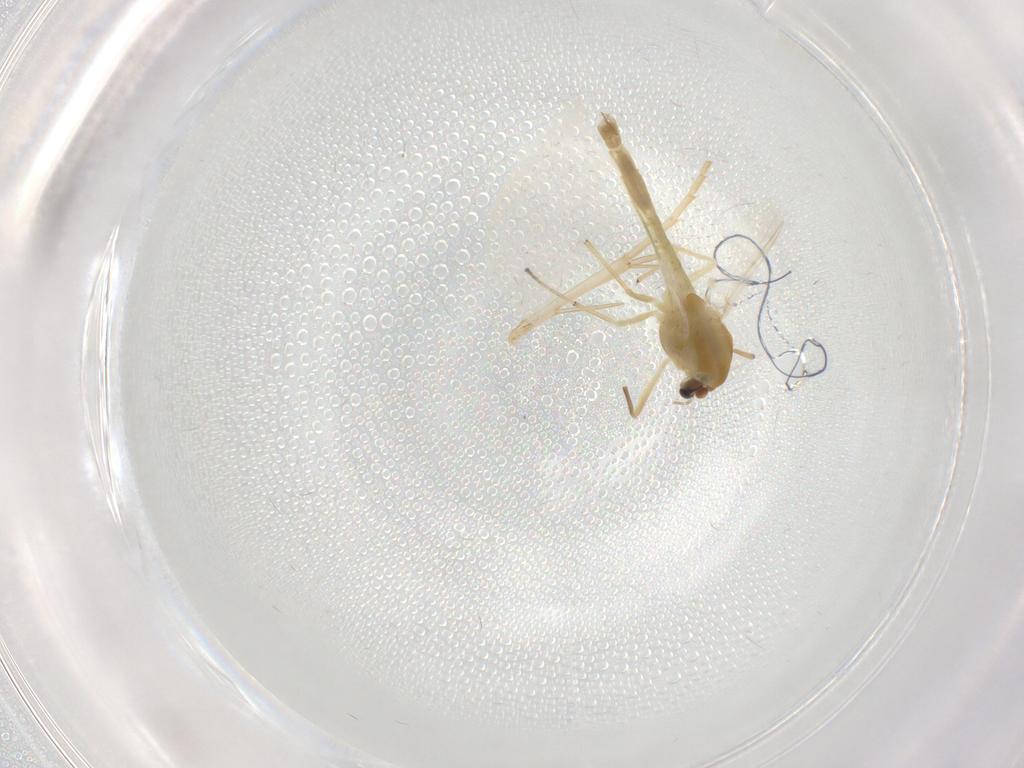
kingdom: Animalia
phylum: Arthropoda
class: Insecta
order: Diptera
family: Chironomidae
